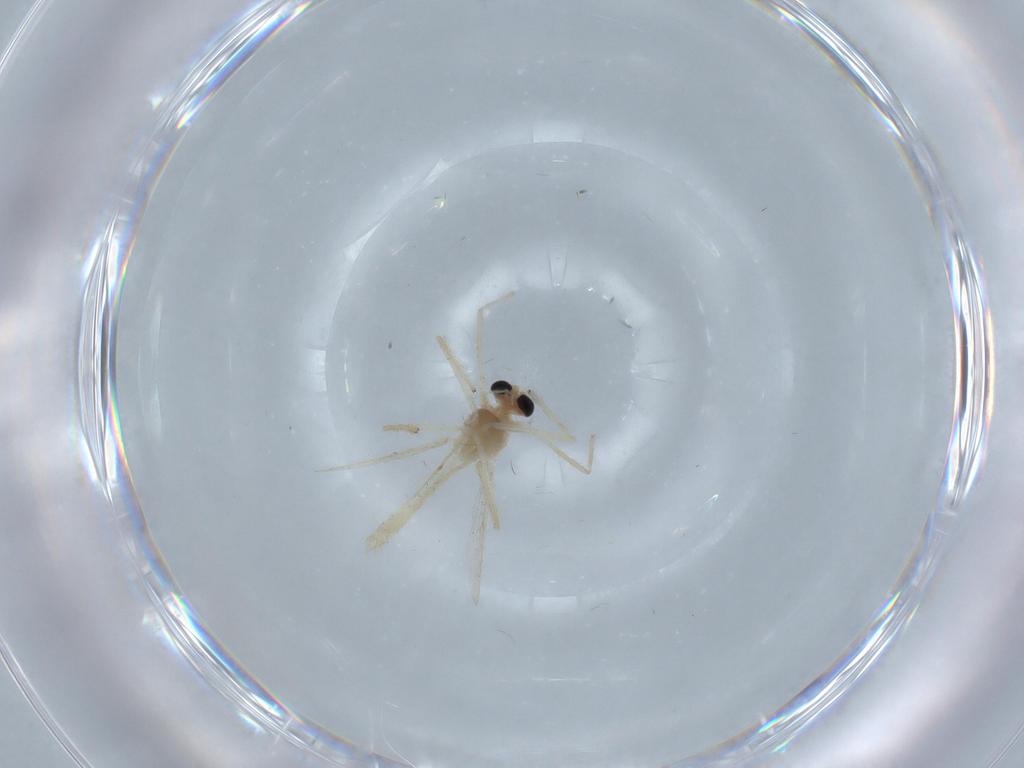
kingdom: Animalia
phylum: Arthropoda
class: Insecta
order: Diptera
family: Chironomidae
